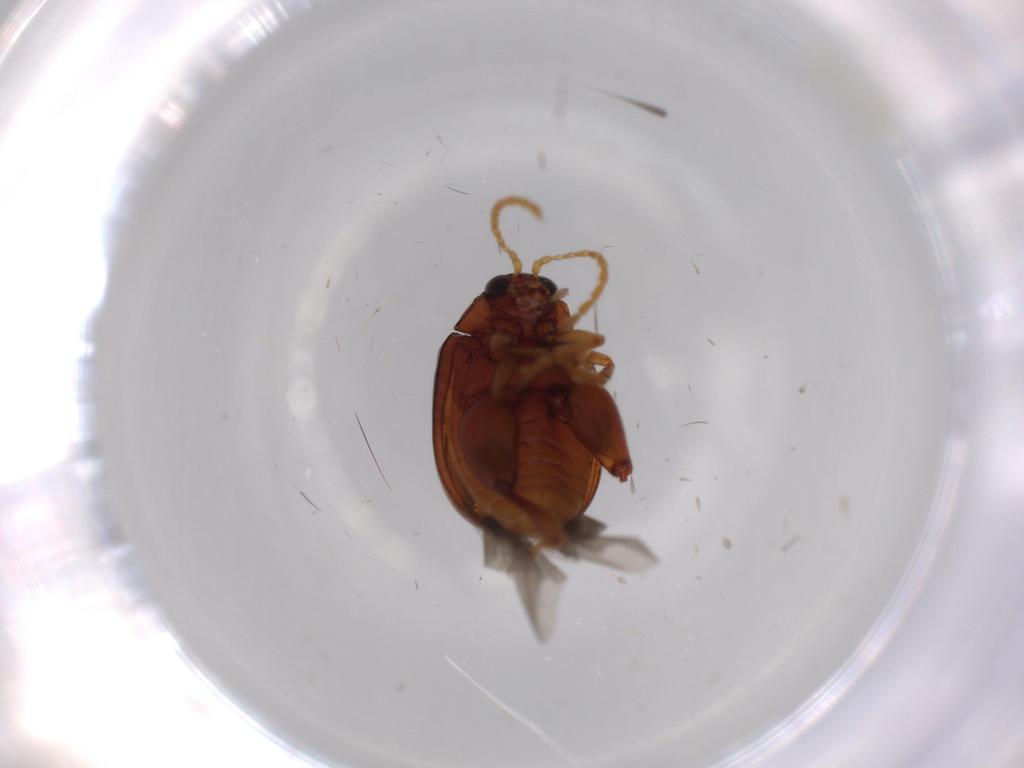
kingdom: Animalia
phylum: Arthropoda
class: Insecta
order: Coleoptera
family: Chrysomelidae
